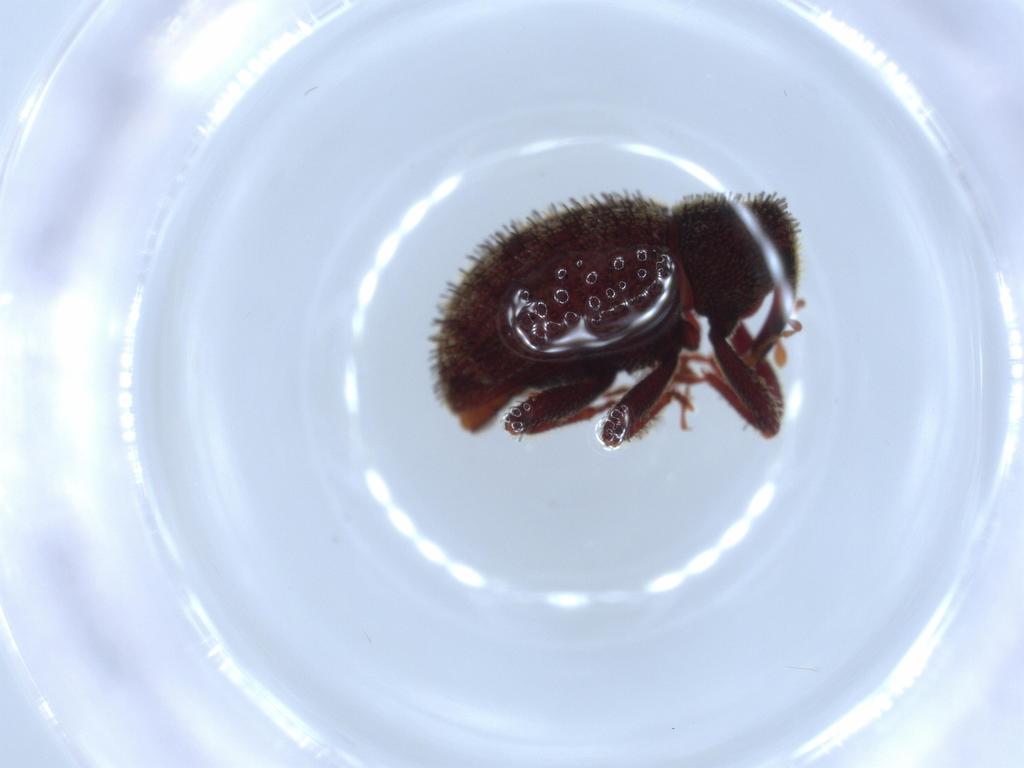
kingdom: Animalia
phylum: Arthropoda
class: Insecta
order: Coleoptera
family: Curculionidae
